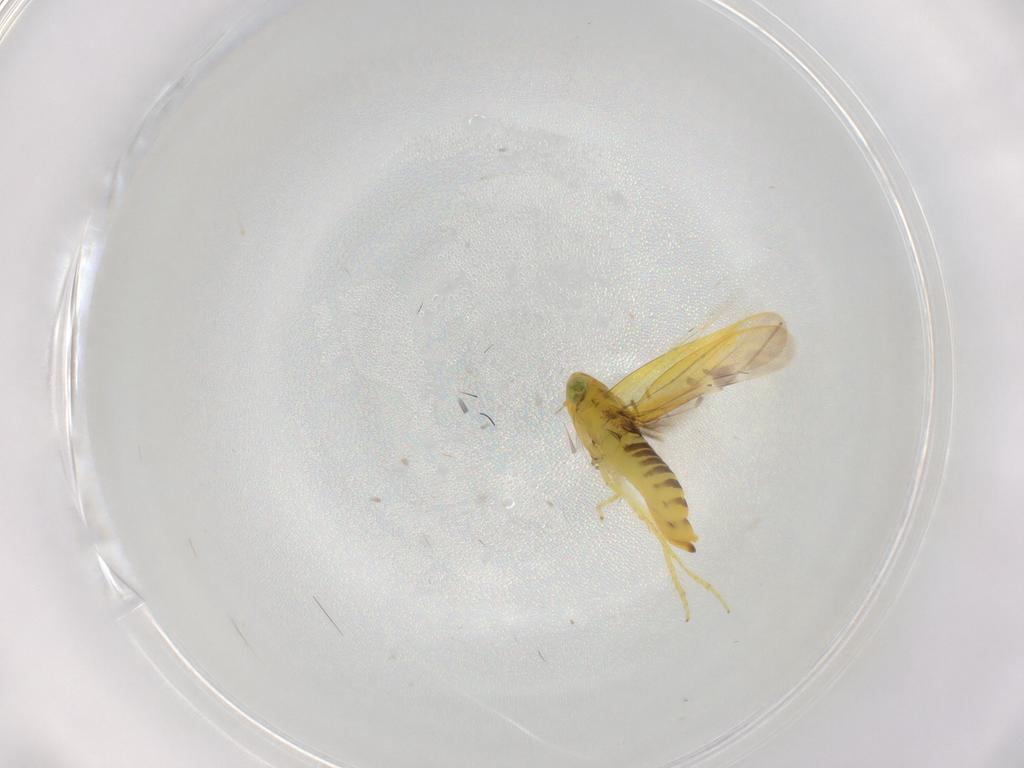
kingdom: Animalia
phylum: Arthropoda
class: Insecta
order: Hemiptera
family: Cicadellidae
